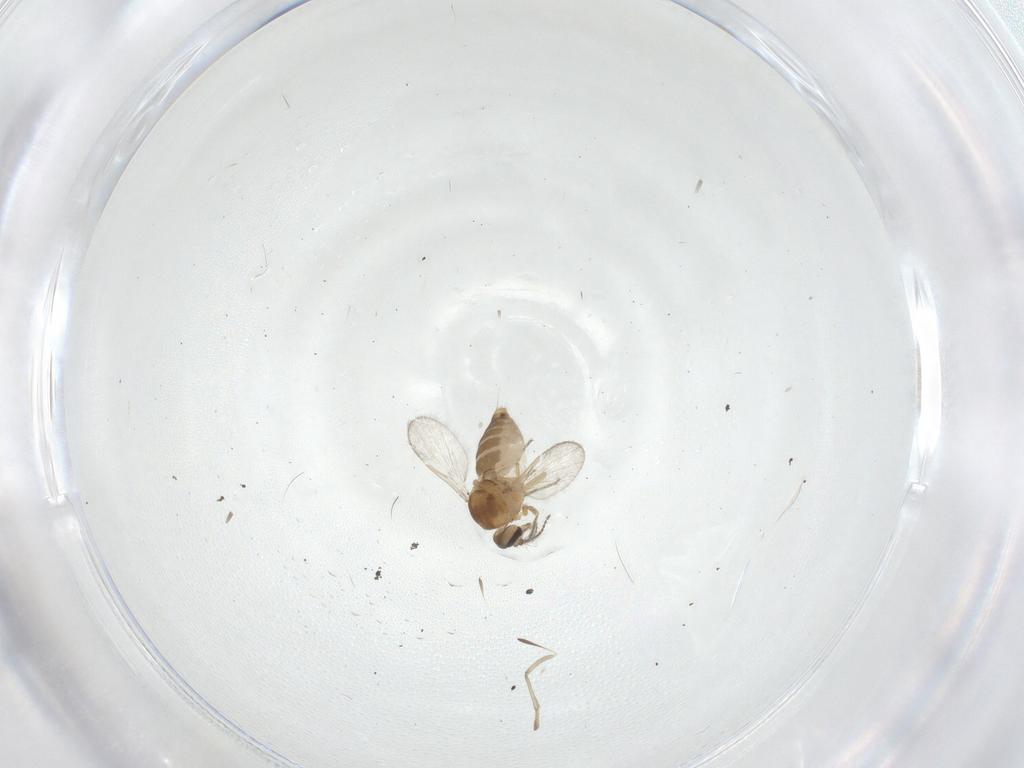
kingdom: Animalia
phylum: Arthropoda
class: Insecta
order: Diptera
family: Ceratopogonidae
